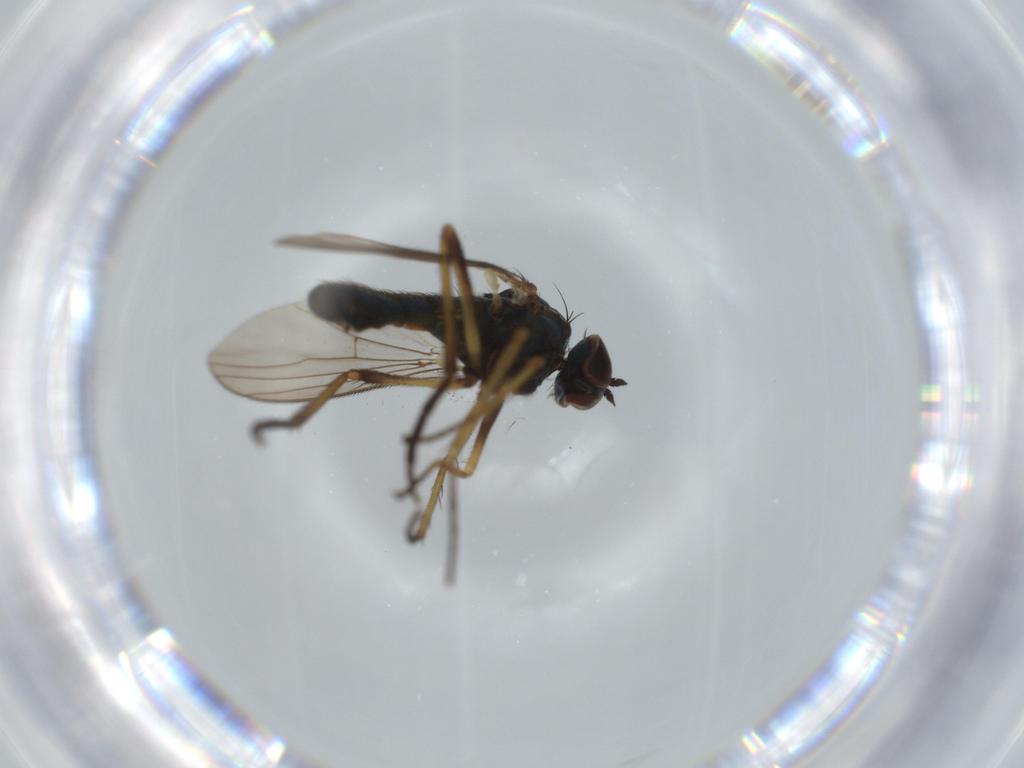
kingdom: Animalia
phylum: Arthropoda
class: Insecta
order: Diptera
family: Dolichopodidae
